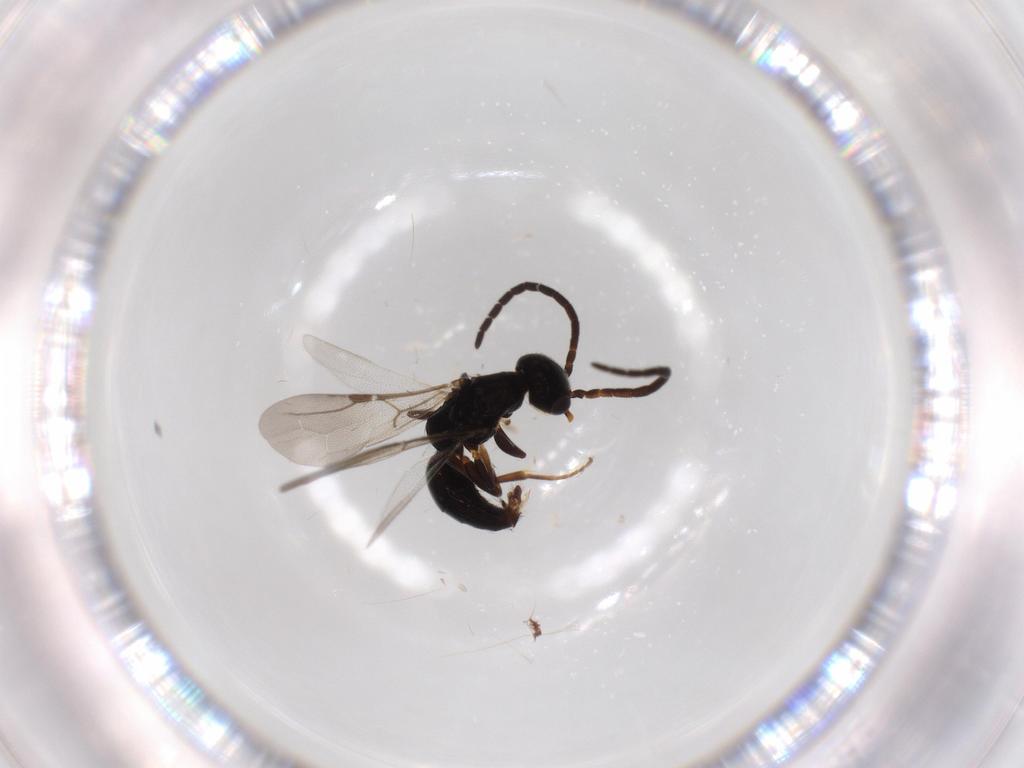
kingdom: Animalia
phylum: Arthropoda
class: Insecta
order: Hymenoptera
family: Bethylidae
